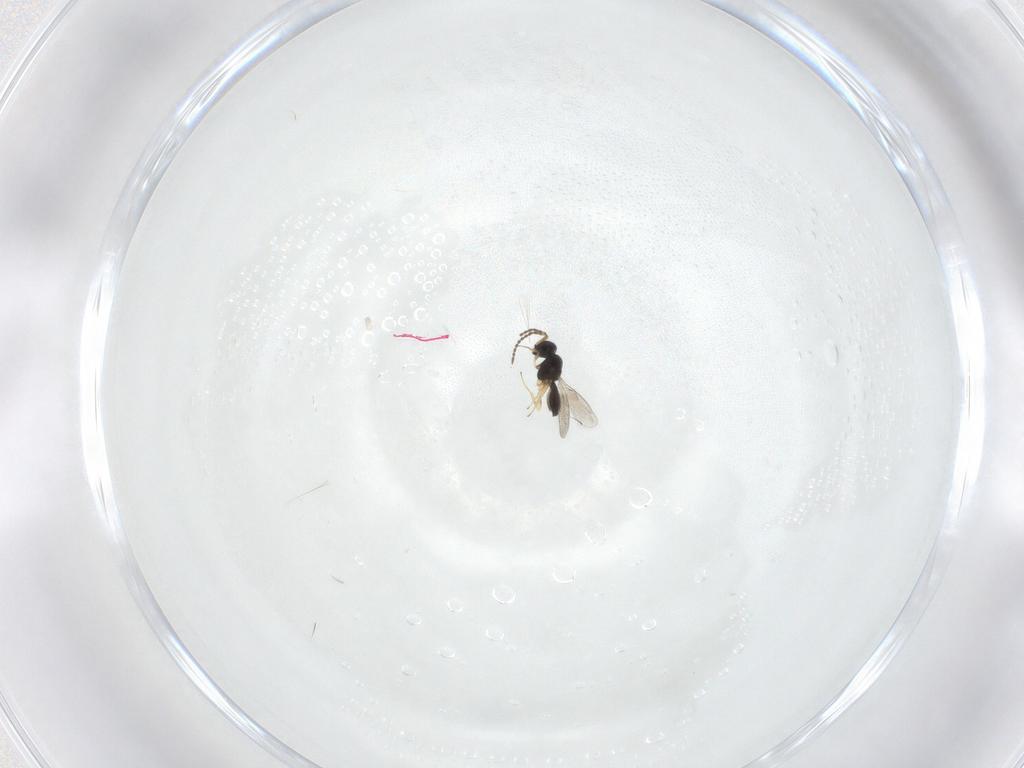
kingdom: Animalia
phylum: Arthropoda
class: Insecta
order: Hymenoptera
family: Scelionidae
